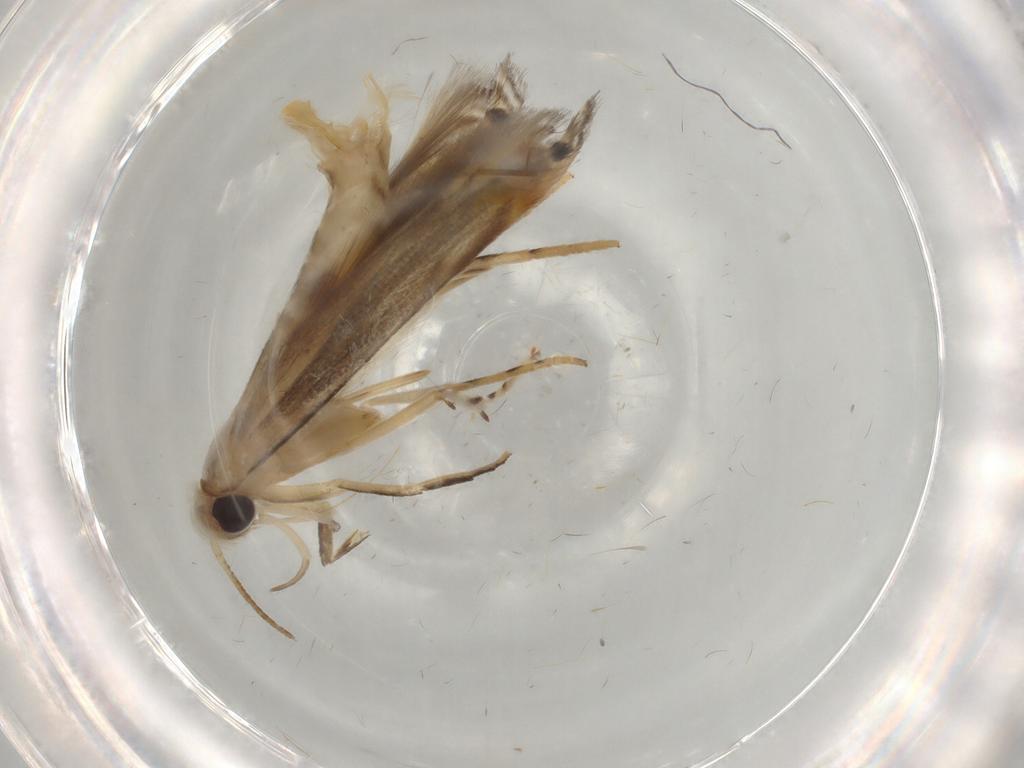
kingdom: Animalia
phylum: Arthropoda
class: Insecta
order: Lepidoptera
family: Gelechiidae
